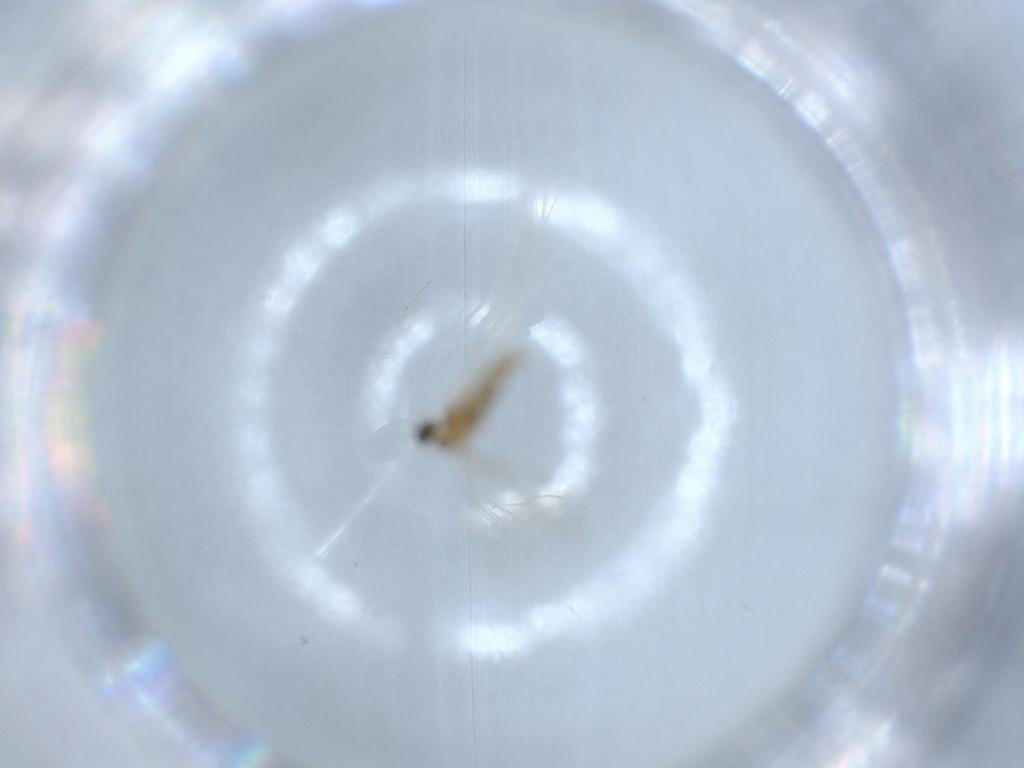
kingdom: Animalia
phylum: Arthropoda
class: Insecta
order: Diptera
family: Cecidomyiidae
